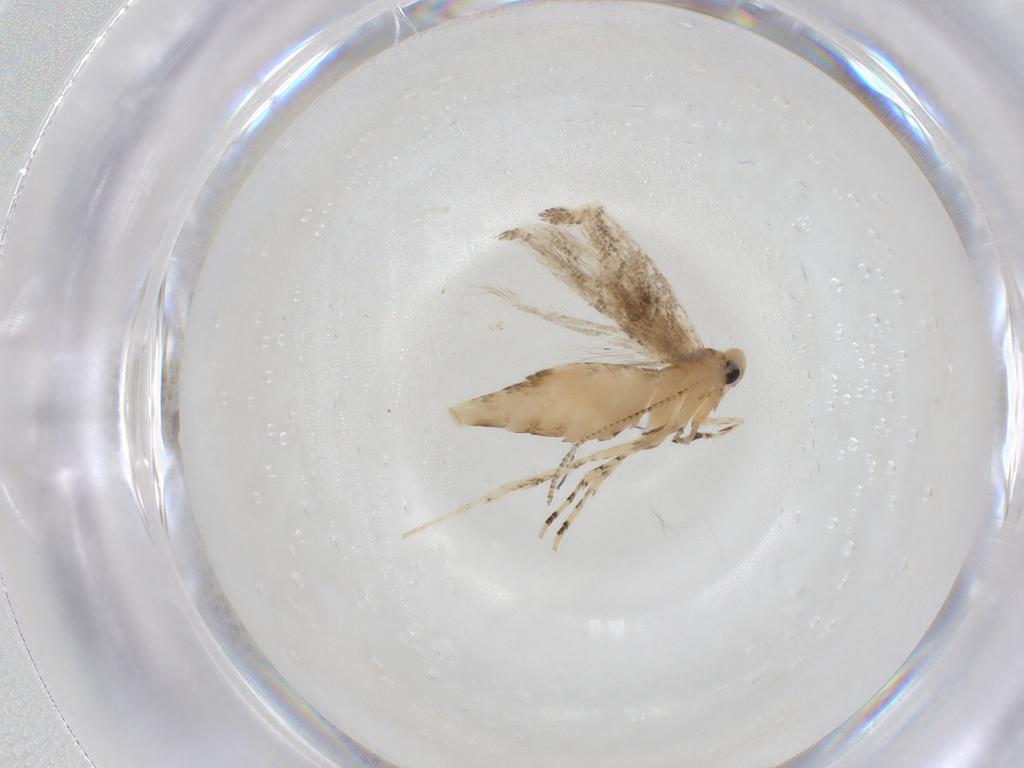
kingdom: Animalia
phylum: Arthropoda
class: Insecta
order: Lepidoptera
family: Gracillariidae
